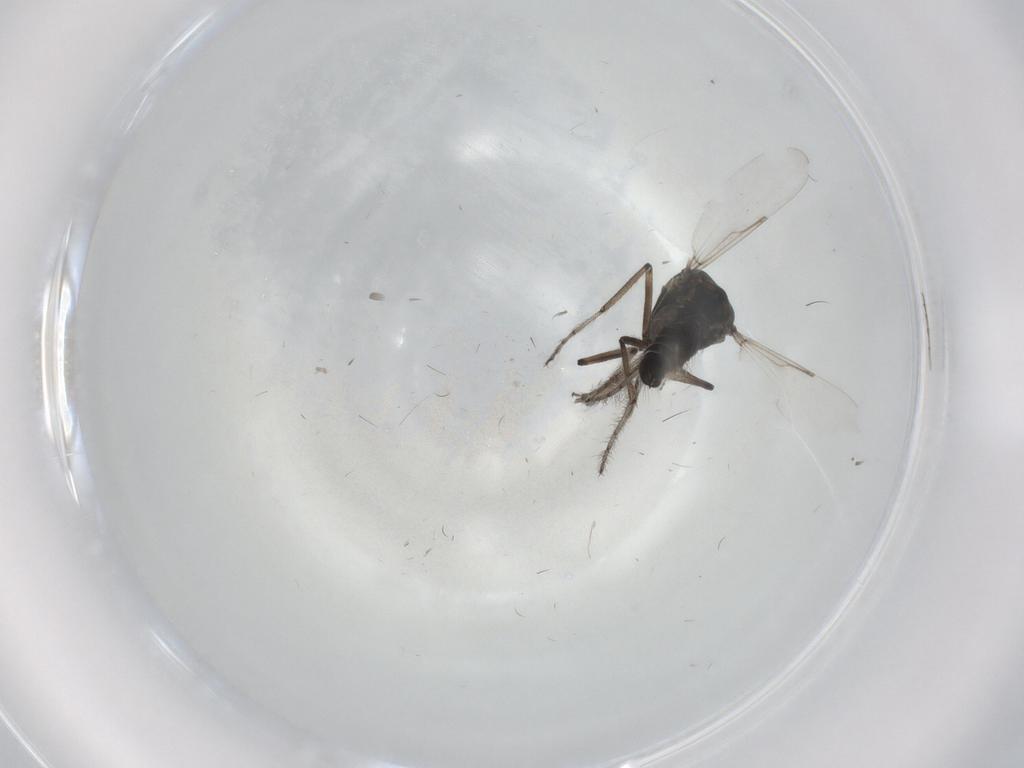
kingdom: Animalia
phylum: Arthropoda
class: Insecta
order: Diptera
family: Ceratopogonidae
